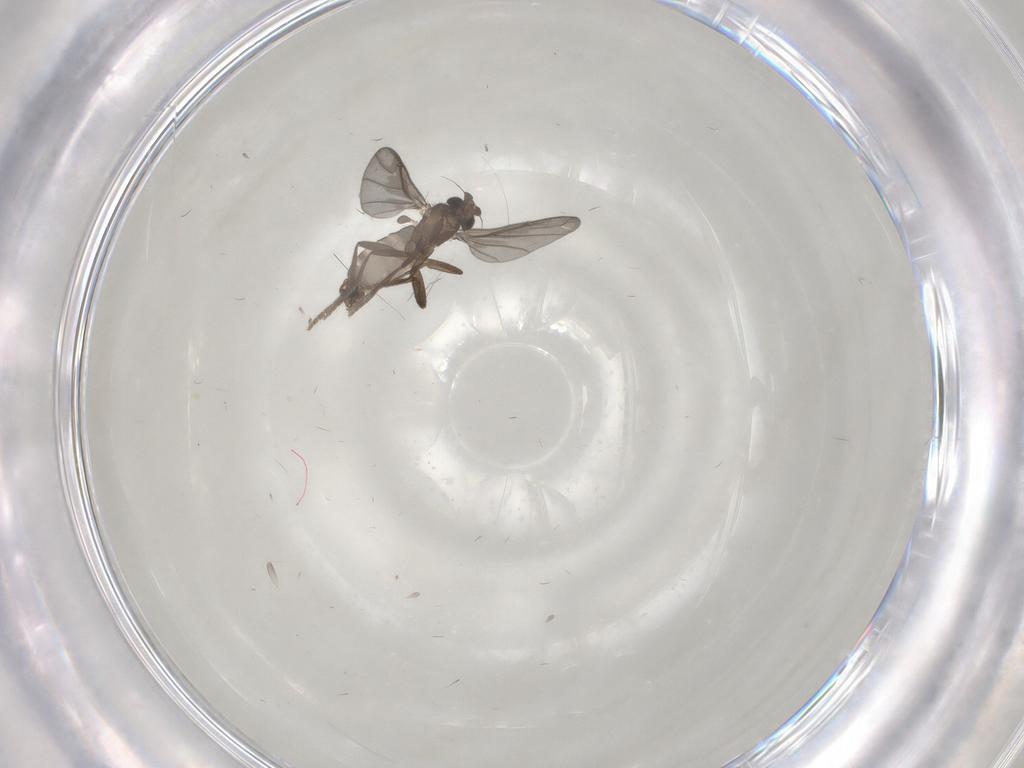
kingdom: Animalia
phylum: Arthropoda
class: Insecta
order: Diptera
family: Phoridae
